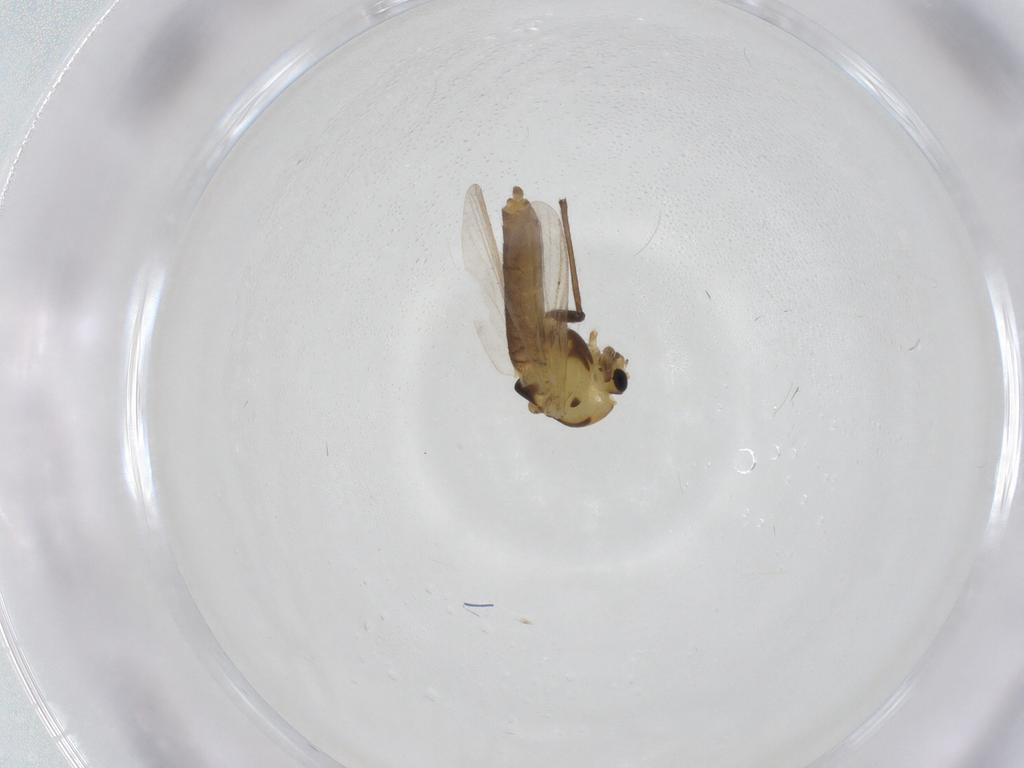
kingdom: Animalia
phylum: Arthropoda
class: Insecta
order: Diptera
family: Chironomidae
